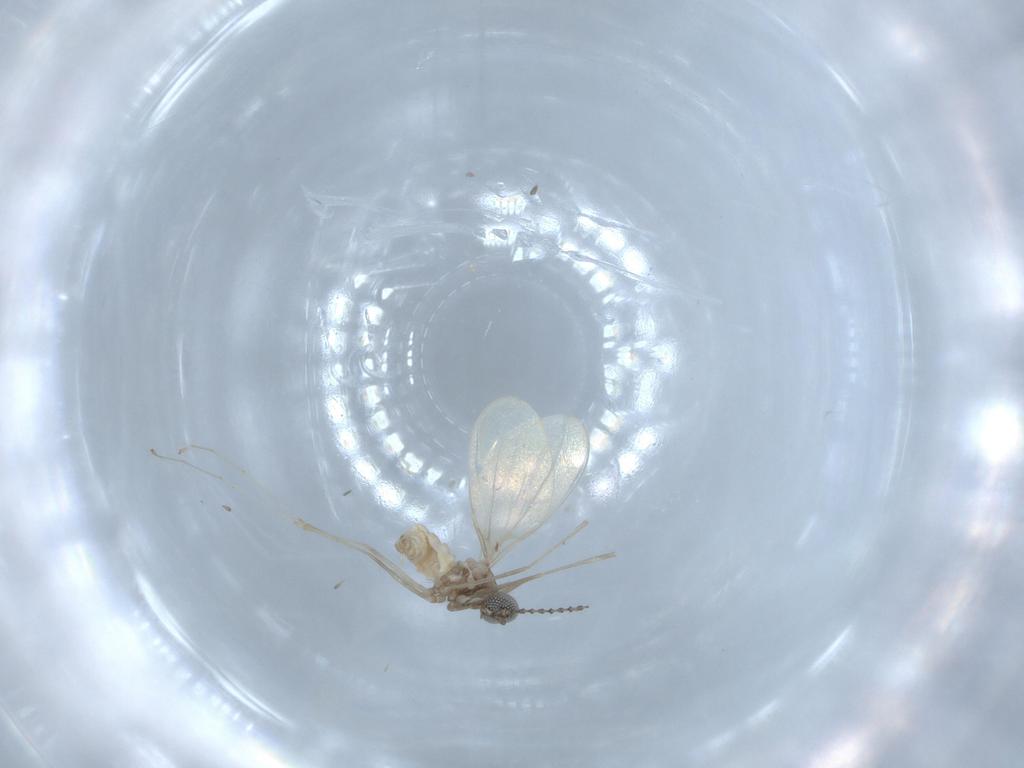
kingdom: Animalia
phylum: Arthropoda
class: Insecta
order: Diptera
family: Cecidomyiidae
